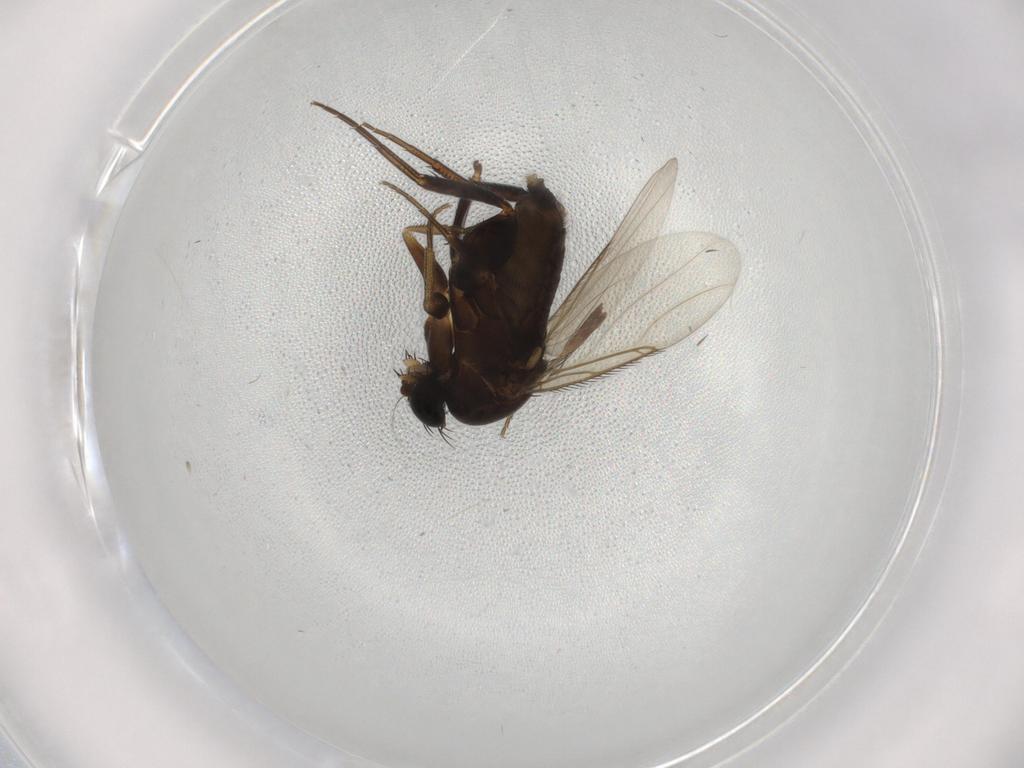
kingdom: Animalia
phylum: Arthropoda
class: Insecta
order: Diptera
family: Phoridae
